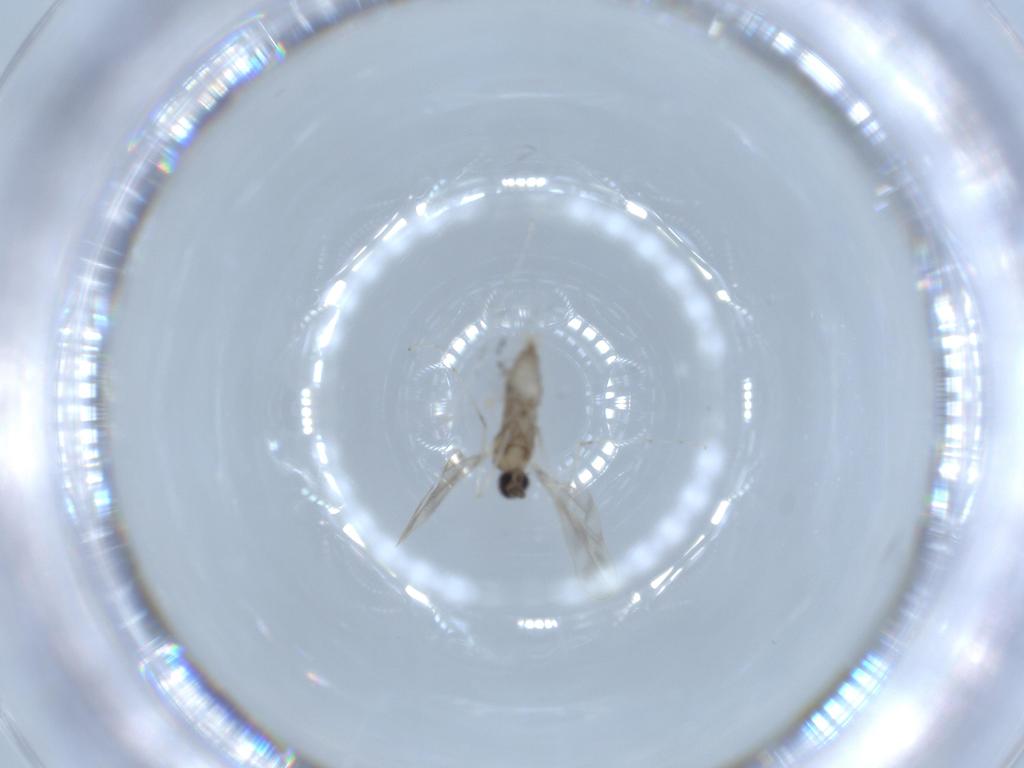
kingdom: Animalia
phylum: Arthropoda
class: Insecta
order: Diptera
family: Cecidomyiidae
